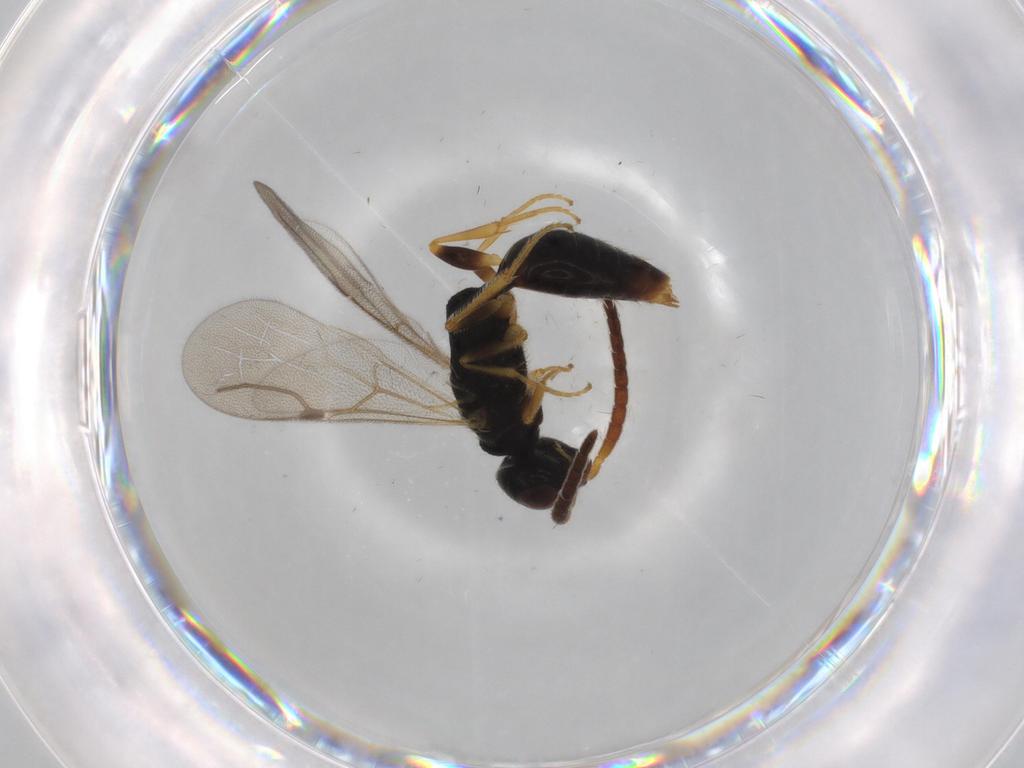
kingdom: Animalia
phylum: Arthropoda
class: Insecta
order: Hymenoptera
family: Bethylidae
